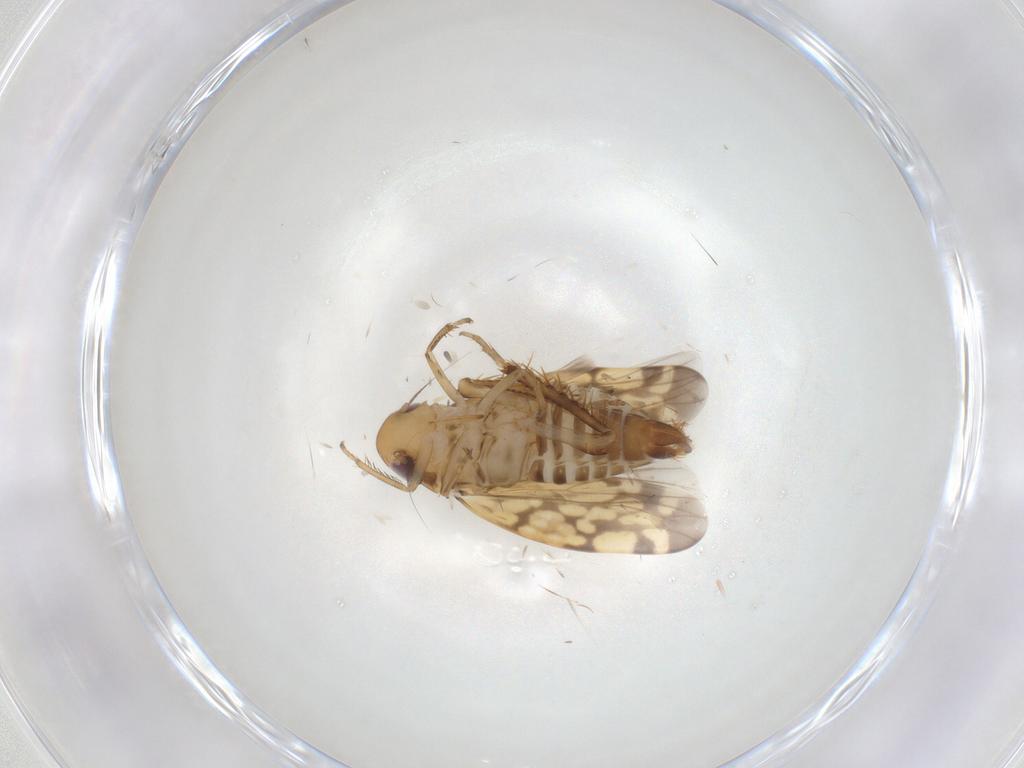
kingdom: Animalia
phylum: Arthropoda
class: Insecta
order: Hemiptera
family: Cicadellidae
